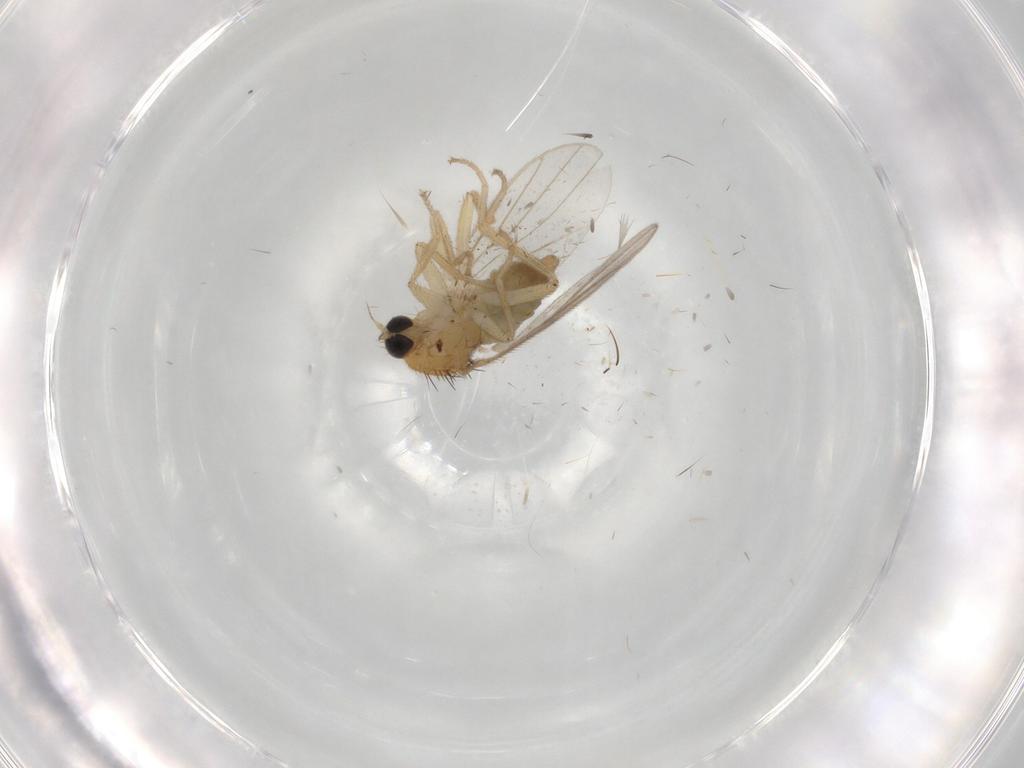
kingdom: Animalia
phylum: Arthropoda
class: Insecta
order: Diptera
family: Hybotidae
